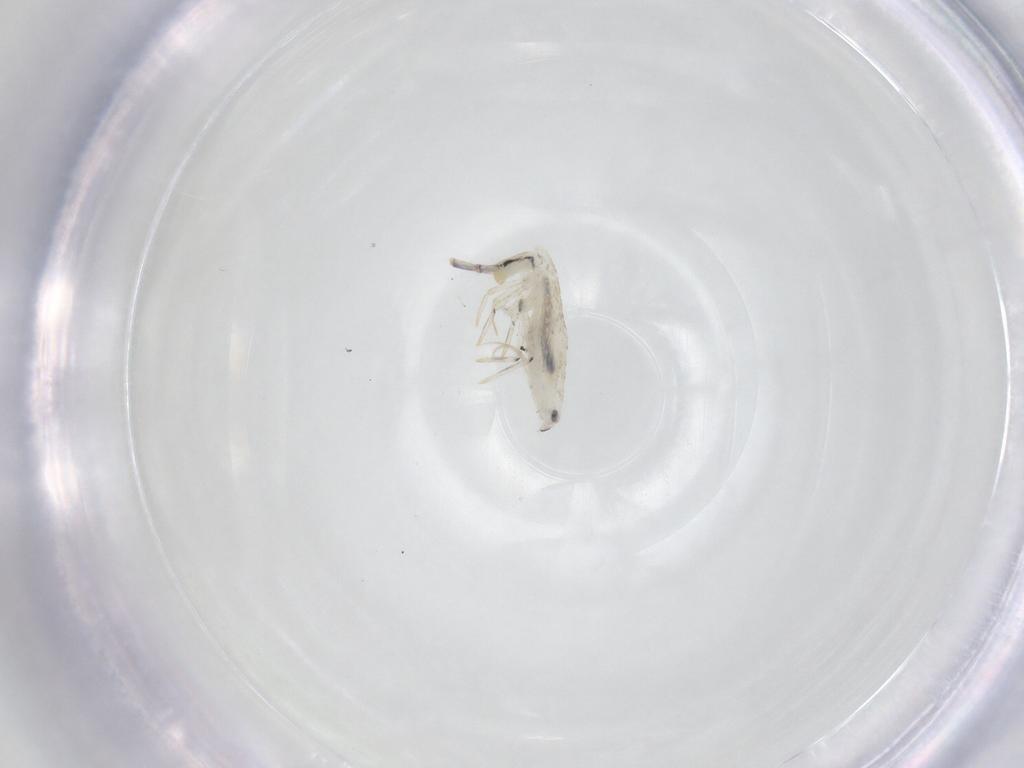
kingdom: Animalia
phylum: Arthropoda
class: Collembola
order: Entomobryomorpha
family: Entomobryidae
